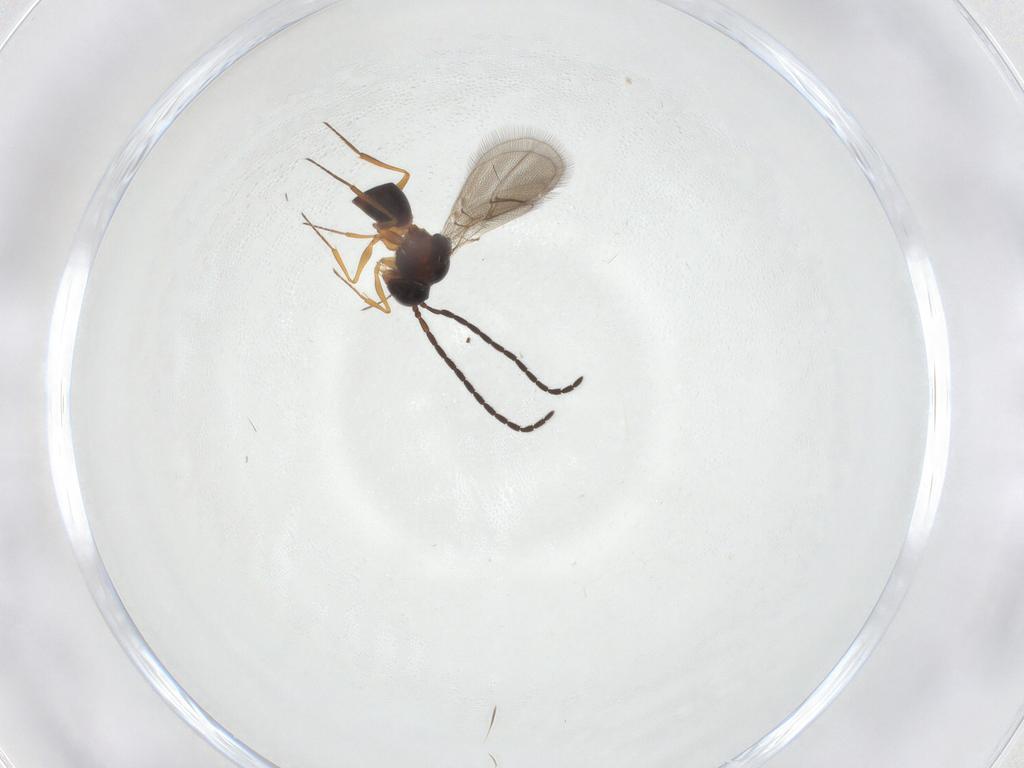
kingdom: Animalia
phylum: Arthropoda
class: Insecta
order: Hymenoptera
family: Figitidae
